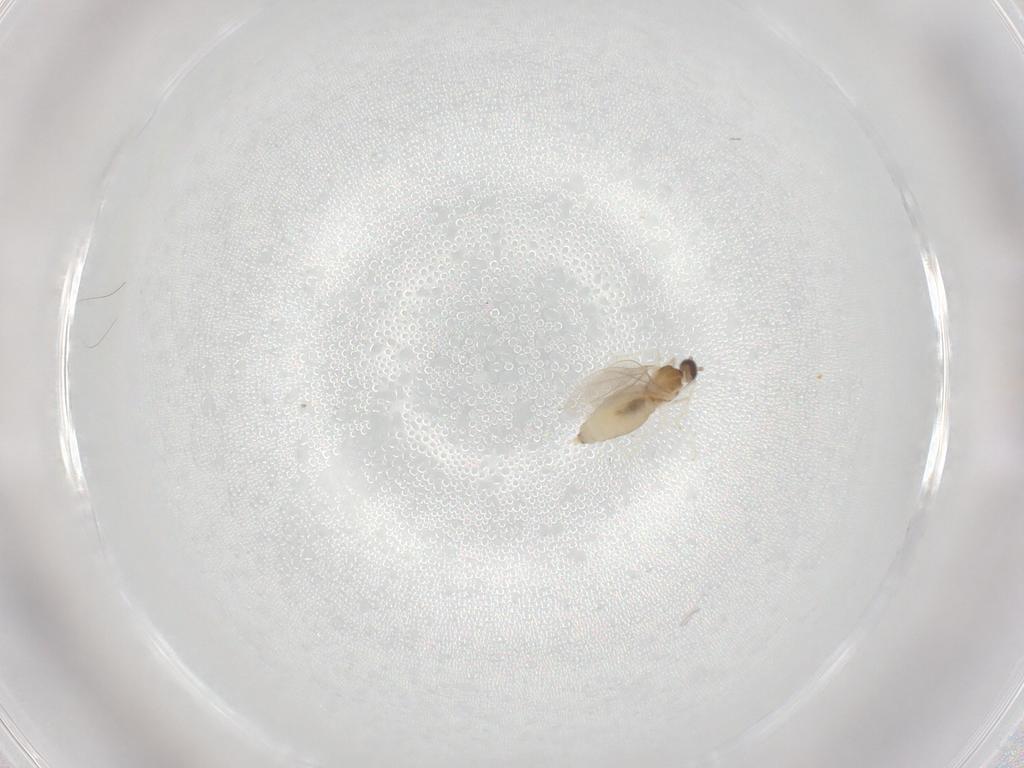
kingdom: Animalia
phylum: Arthropoda
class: Insecta
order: Diptera
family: Cecidomyiidae
